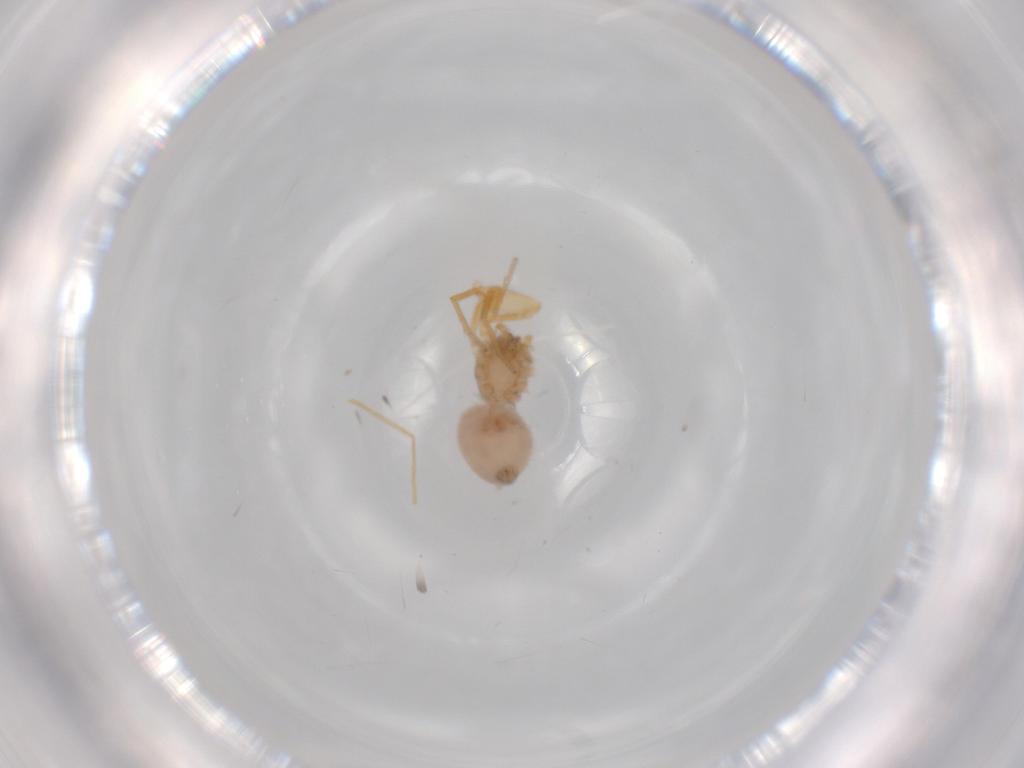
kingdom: Animalia
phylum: Arthropoda
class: Arachnida
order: Araneae
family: Oonopidae
